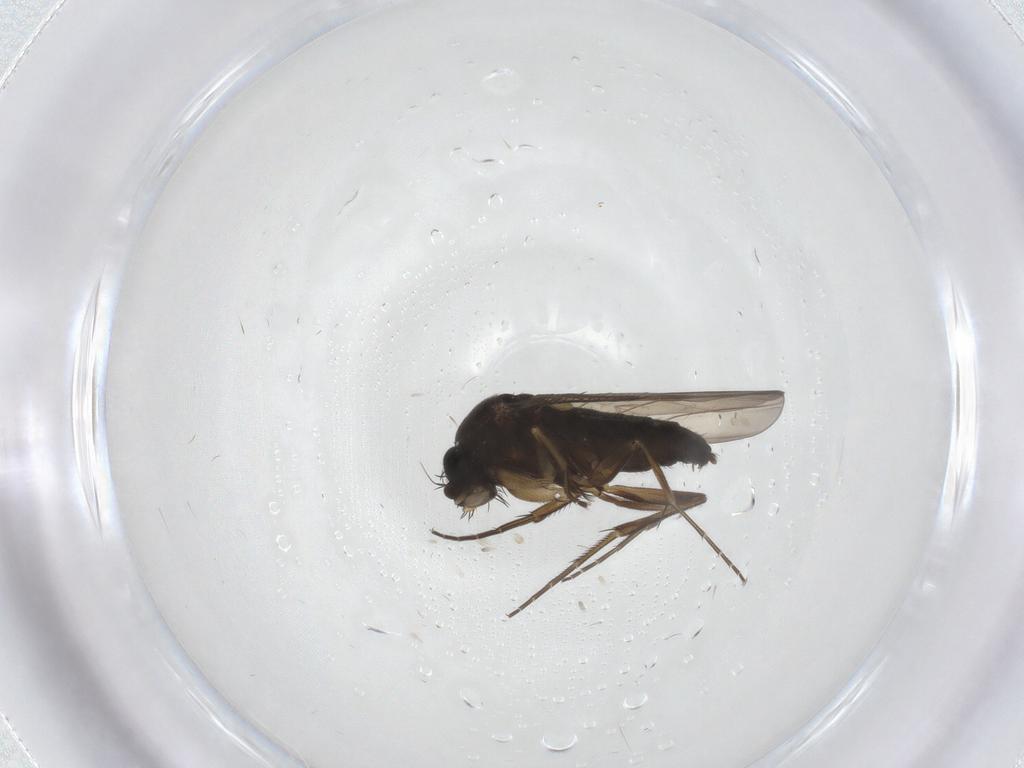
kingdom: Animalia
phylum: Arthropoda
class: Insecta
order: Diptera
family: Phoridae
